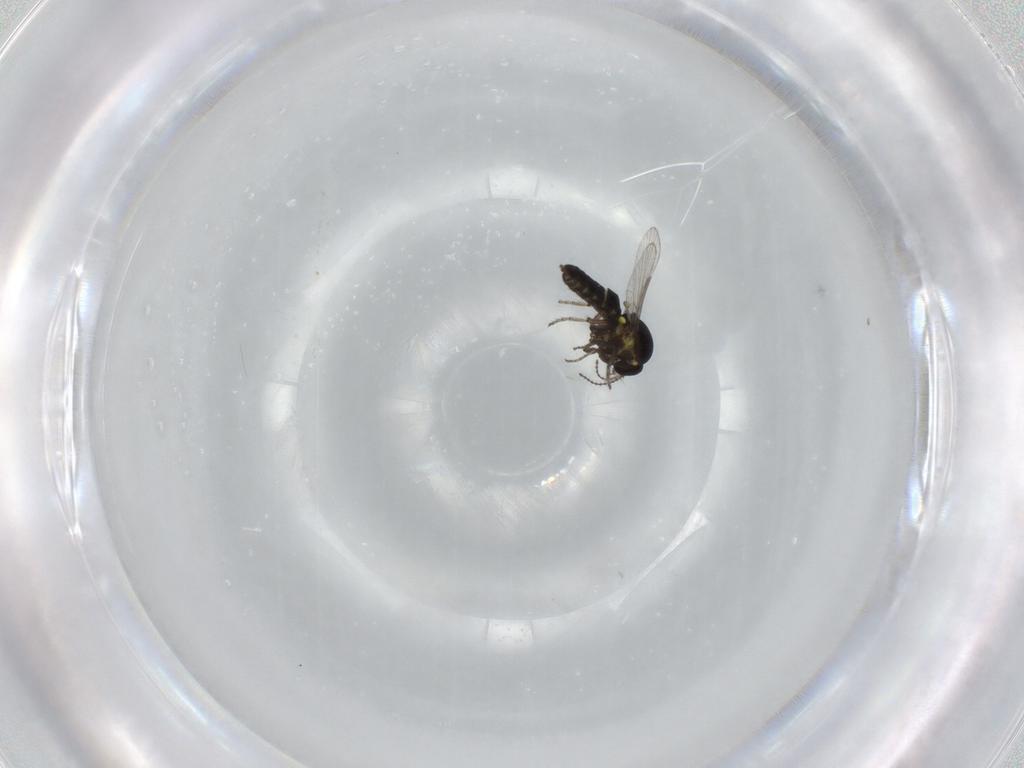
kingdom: Animalia
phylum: Arthropoda
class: Insecta
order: Diptera
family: Ceratopogonidae
